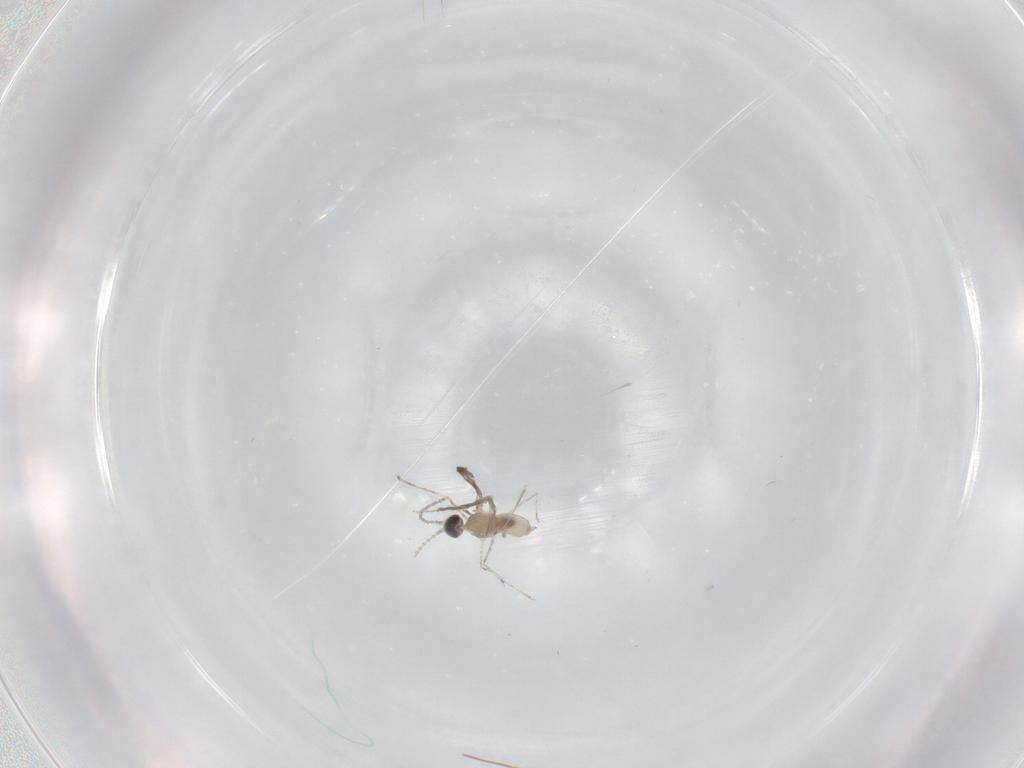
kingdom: Animalia
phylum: Arthropoda
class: Insecta
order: Diptera
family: Cecidomyiidae
